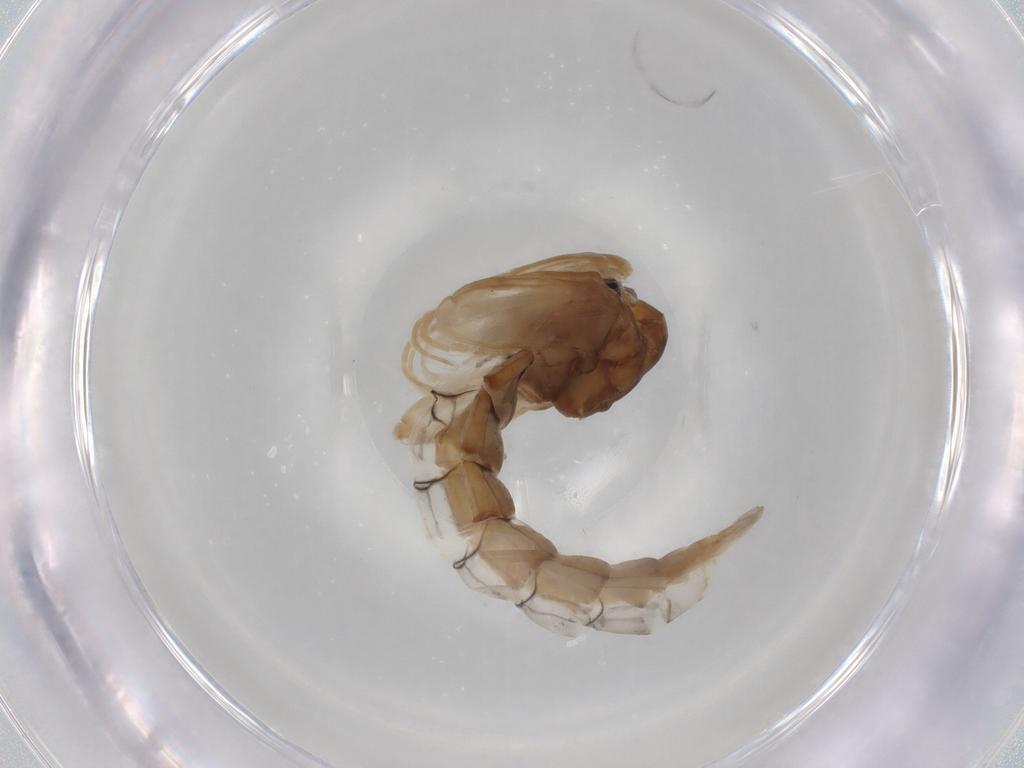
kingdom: Animalia
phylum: Arthropoda
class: Insecta
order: Diptera
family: Chironomidae
